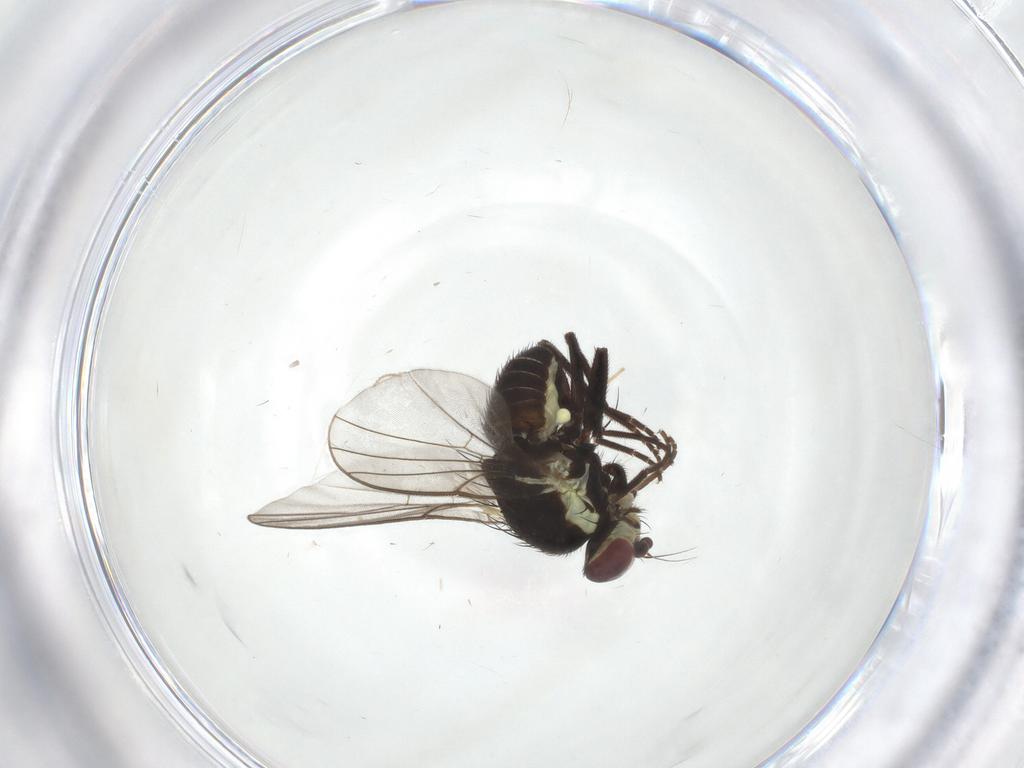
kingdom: Animalia
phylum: Arthropoda
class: Insecta
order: Diptera
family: Agromyzidae
